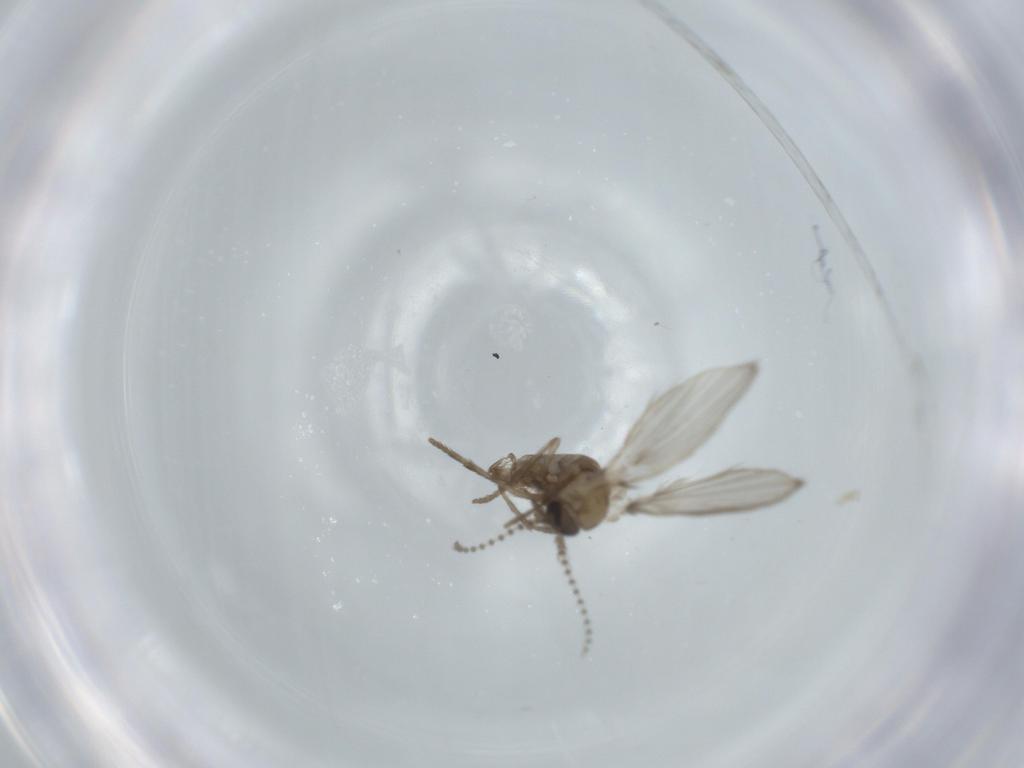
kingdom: Animalia
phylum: Arthropoda
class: Insecta
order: Diptera
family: Psychodidae
